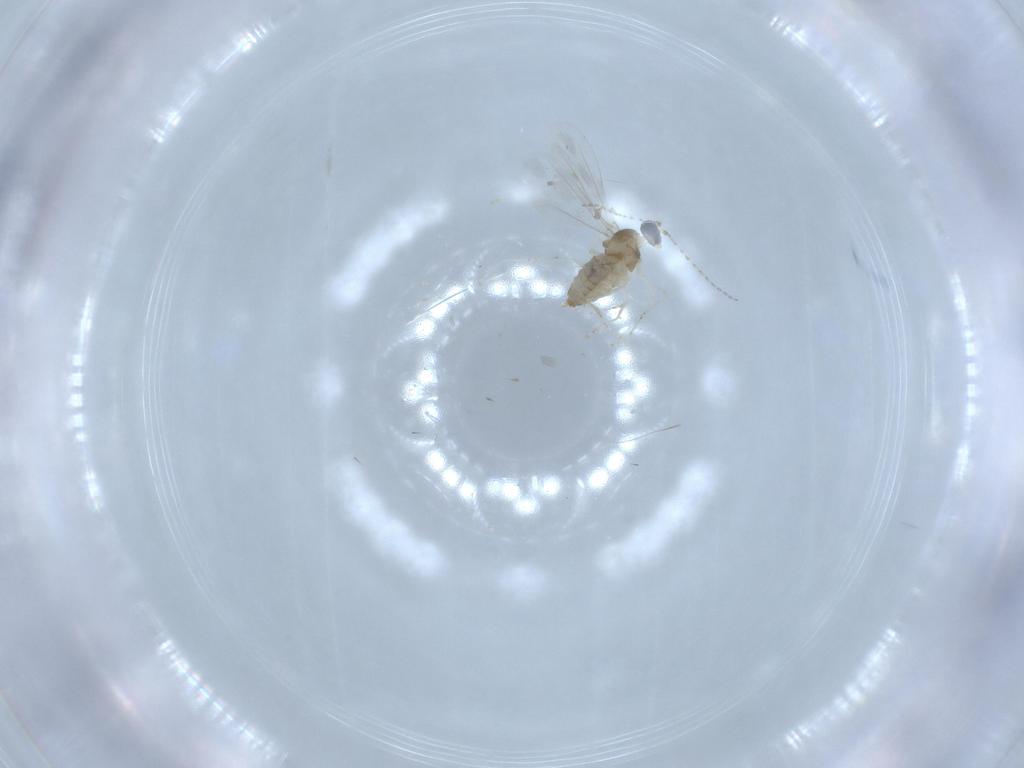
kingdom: Animalia
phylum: Arthropoda
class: Insecta
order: Diptera
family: Cecidomyiidae
